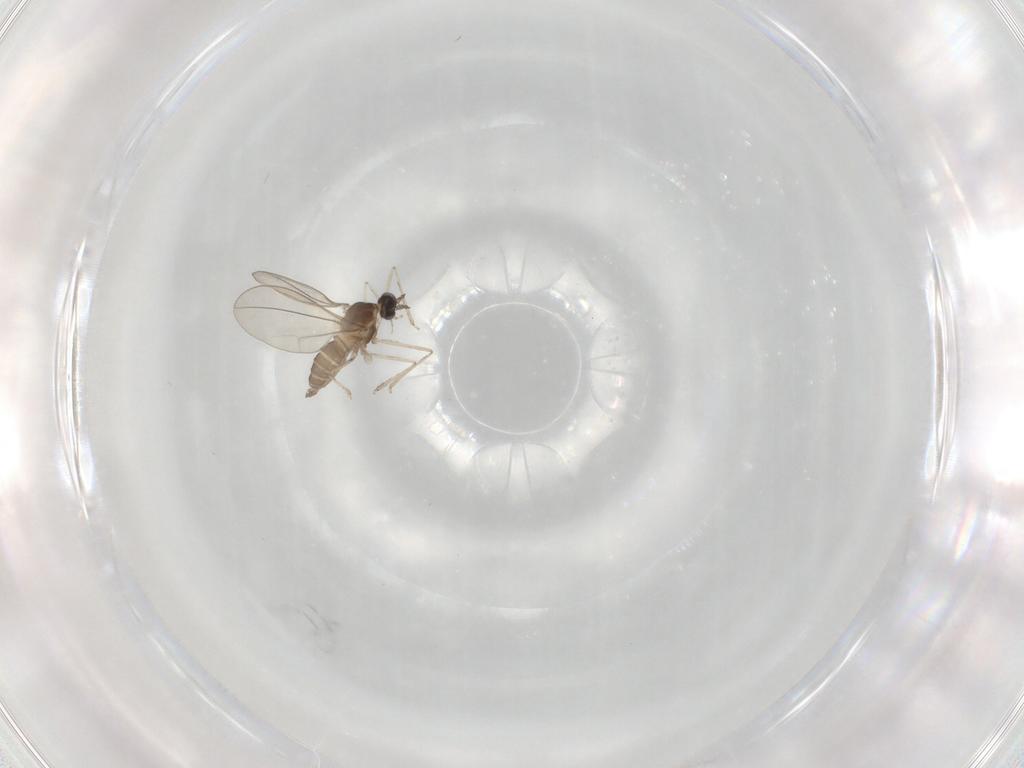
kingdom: Animalia
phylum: Arthropoda
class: Insecta
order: Diptera
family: Cecidomyiidae
